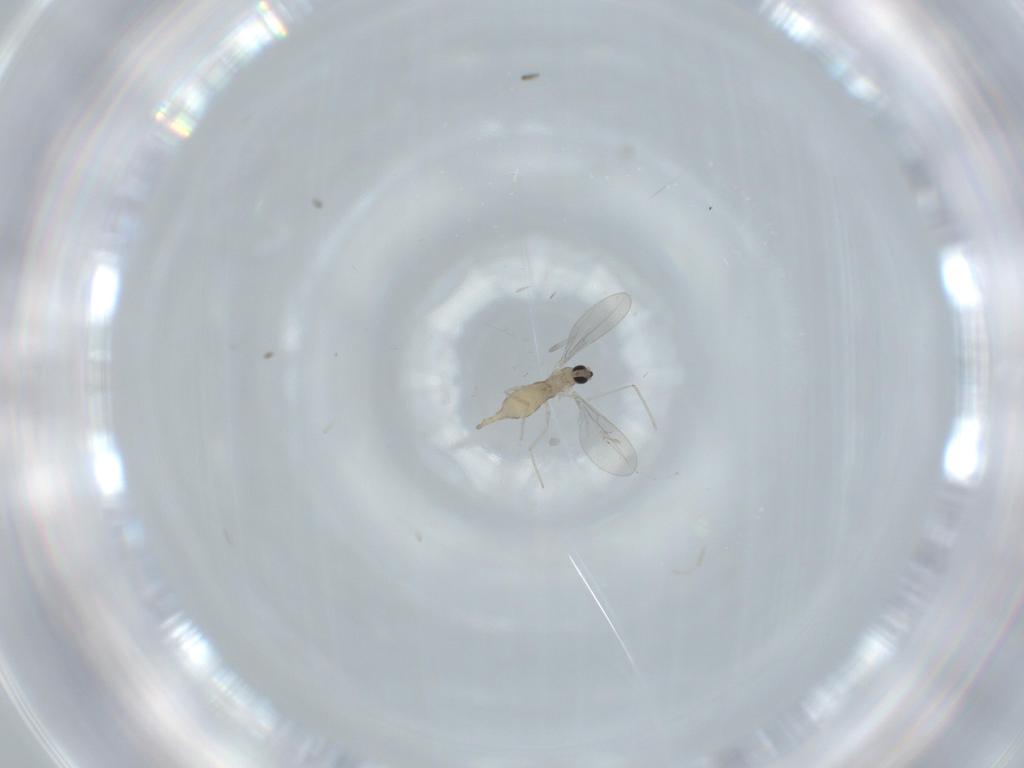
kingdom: Animalia
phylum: Arthropoda
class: Insecta
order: Diptera
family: Cecidomyiidae
